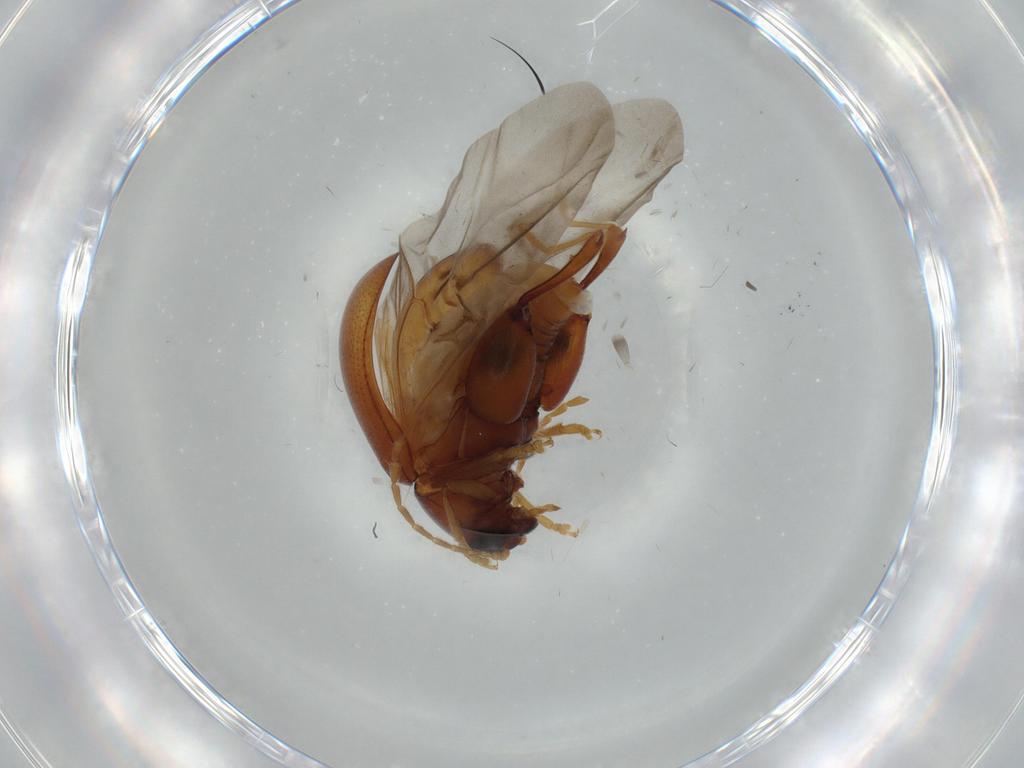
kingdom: Animalia
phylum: Arthropoda
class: Insecta
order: Coleoptera
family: Chrysomelidae
